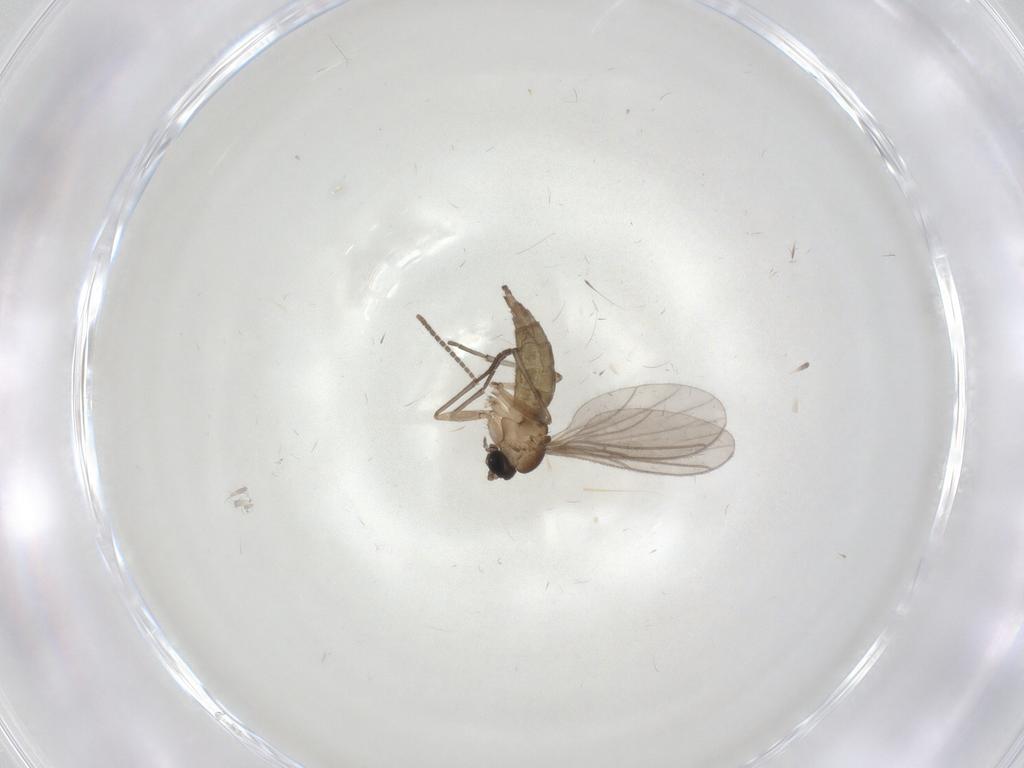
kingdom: Animalia
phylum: Arthropoda
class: Insecta
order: Diptera
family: Sciaridae
